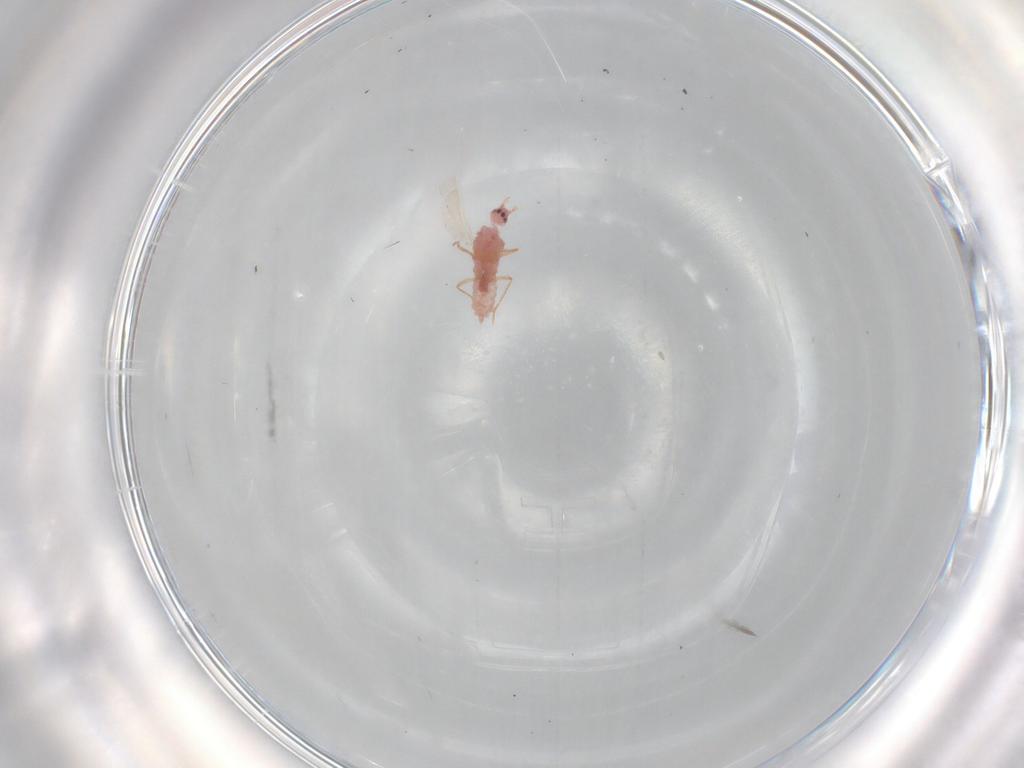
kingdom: Animalia
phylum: Arthropoda
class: Insecta
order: Hemiptera
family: Pseudococcidae
